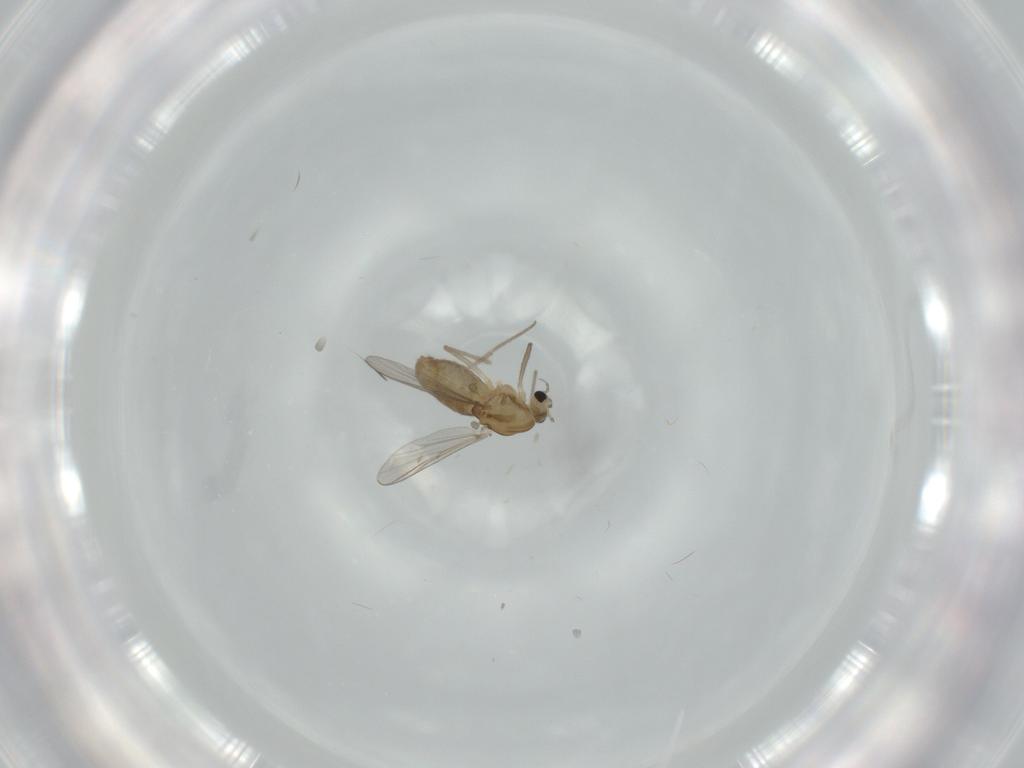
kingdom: Animalia
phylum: Arthropoda
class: Insecta
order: Diptera
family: Chironomidae
